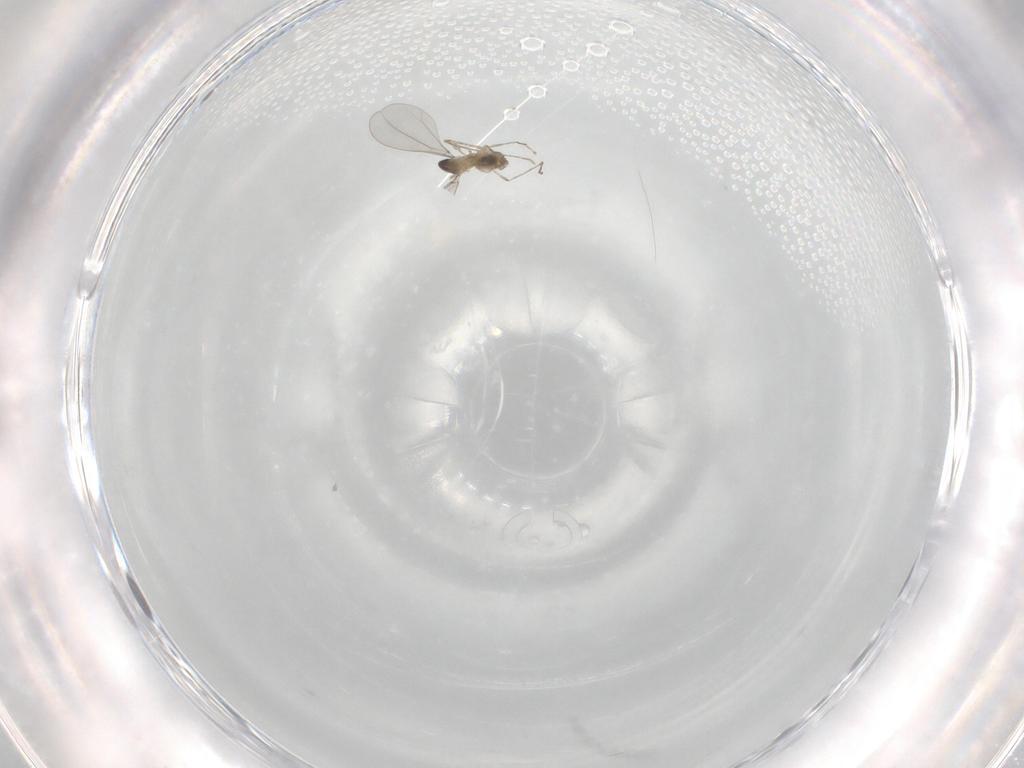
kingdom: Animalia
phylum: Arthropoda
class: Insecta
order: Diptera
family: Cecidomyiidae
